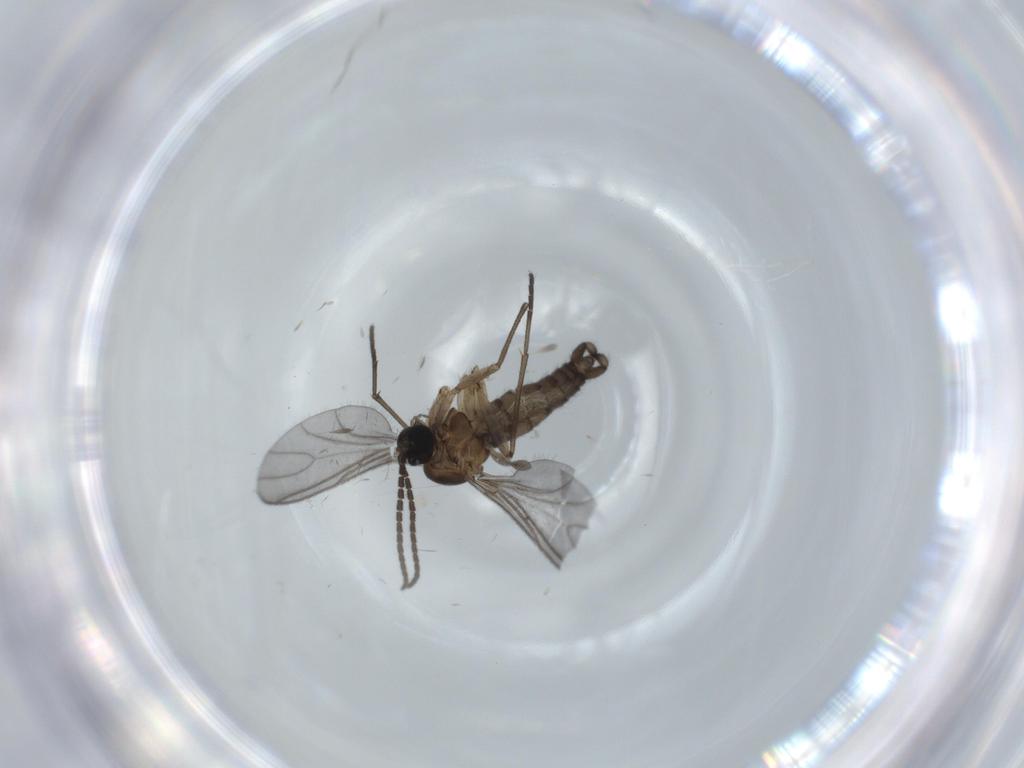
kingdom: Animalia
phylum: Arthropoda
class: Insecta
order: Diptera
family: Sciaridae
